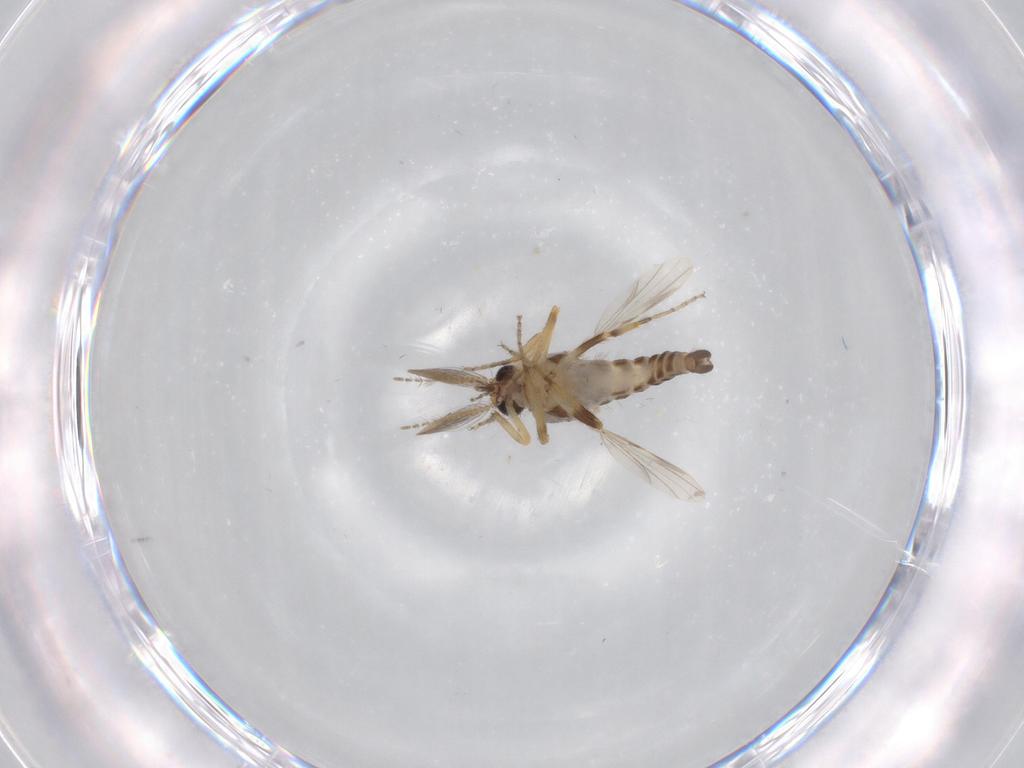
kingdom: Animalia
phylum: Arthropoda
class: Insecta
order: Diptera
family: Ceratopogonidae
